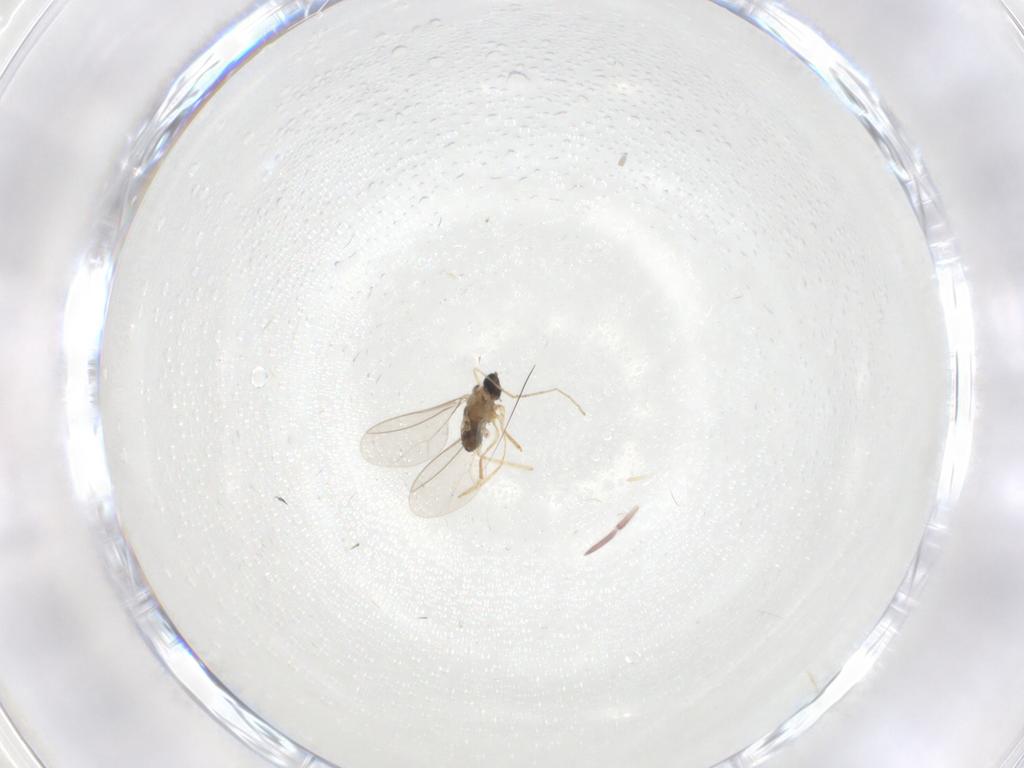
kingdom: Animalia
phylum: Arthropoda
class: Insecta
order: Diptera
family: Cecidomyiidae
